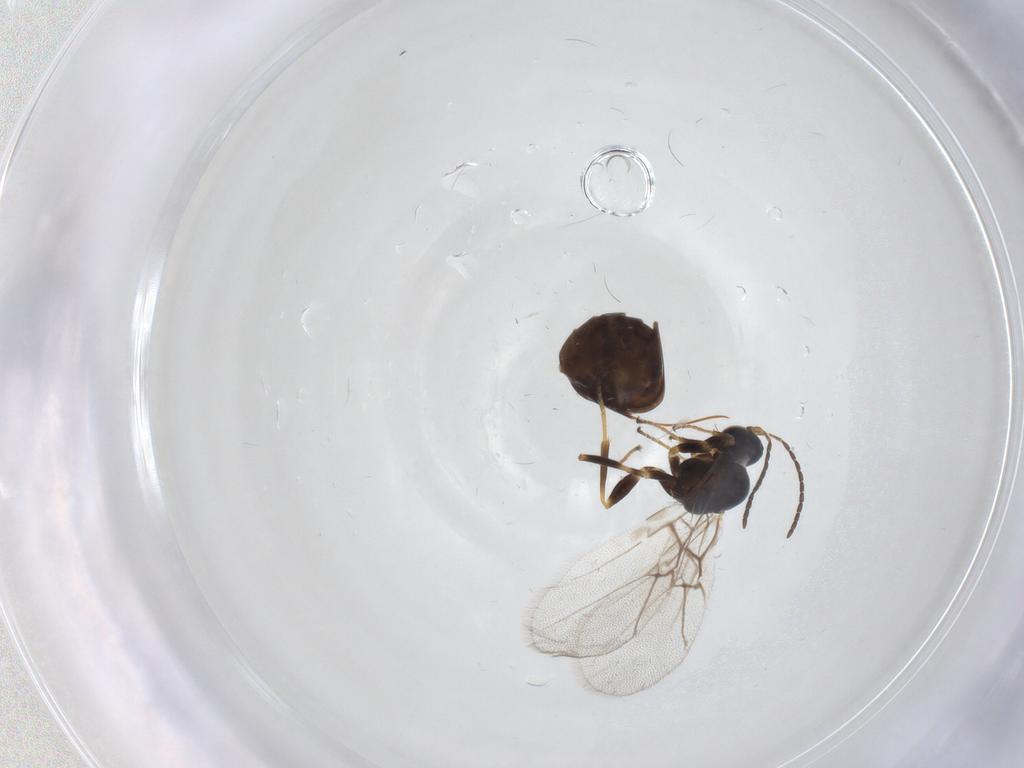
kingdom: Animalia
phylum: Arthropoda
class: Insecta
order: Hymenoptera
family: Cynipidae
